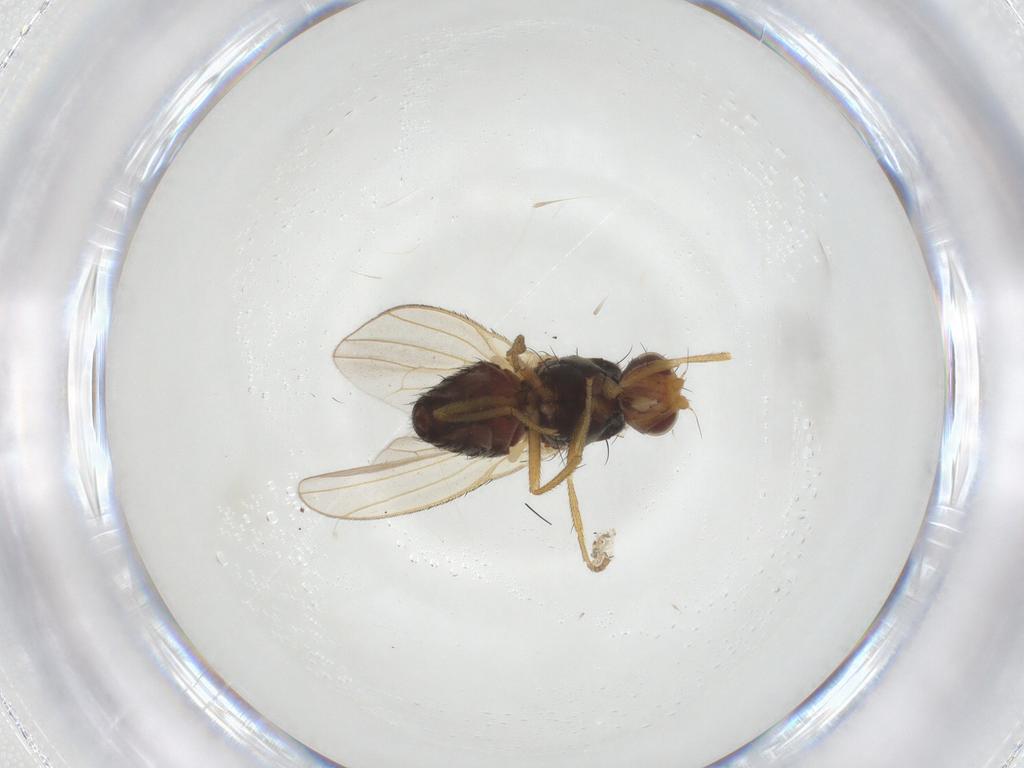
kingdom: Animalia
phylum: Arthropoda
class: Insecta
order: Diptera
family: Heleomyzidae
